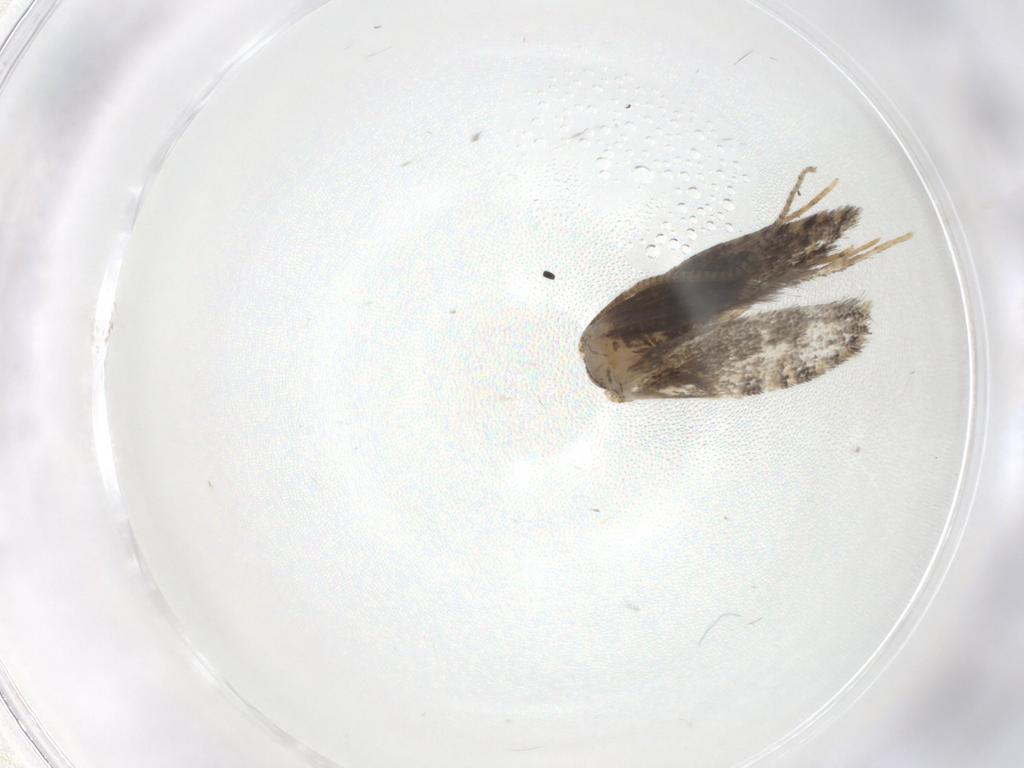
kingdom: Animalia
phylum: Arthropoda
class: Insecta
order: Lepidoptera
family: Tineidae
